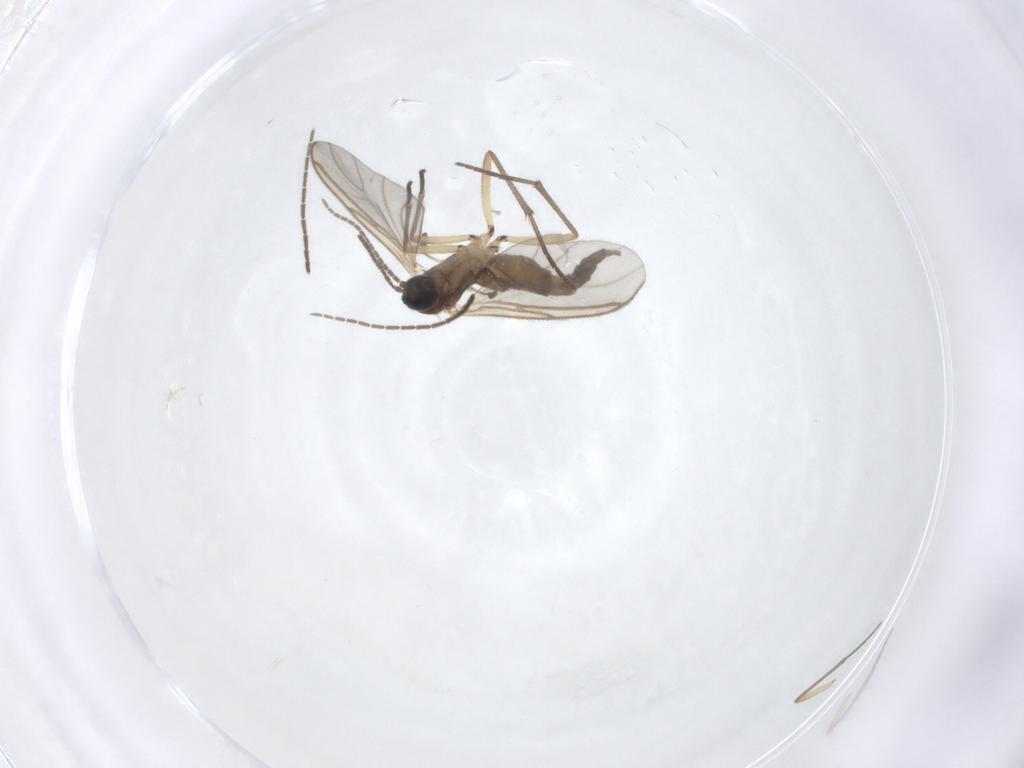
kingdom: Animalia
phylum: Arthropoda
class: Insecta
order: Diptera
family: Sciaridae
